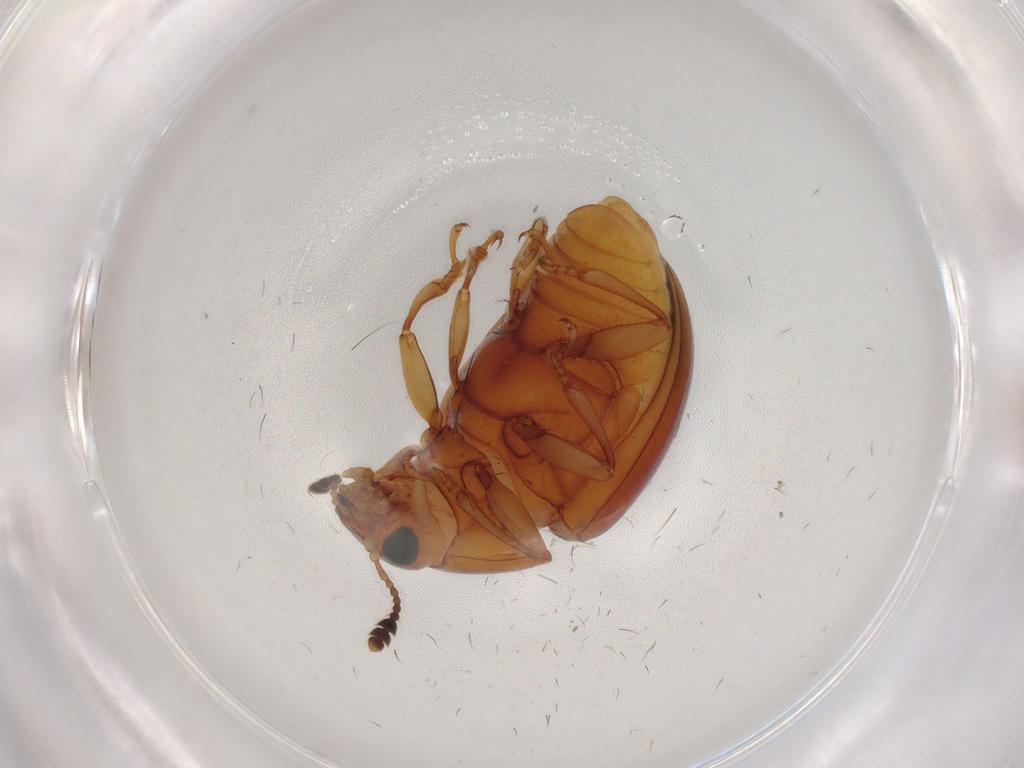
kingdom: Animalia
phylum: Arthropoda
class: Insecta
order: Coleoptera
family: Erotylidae
